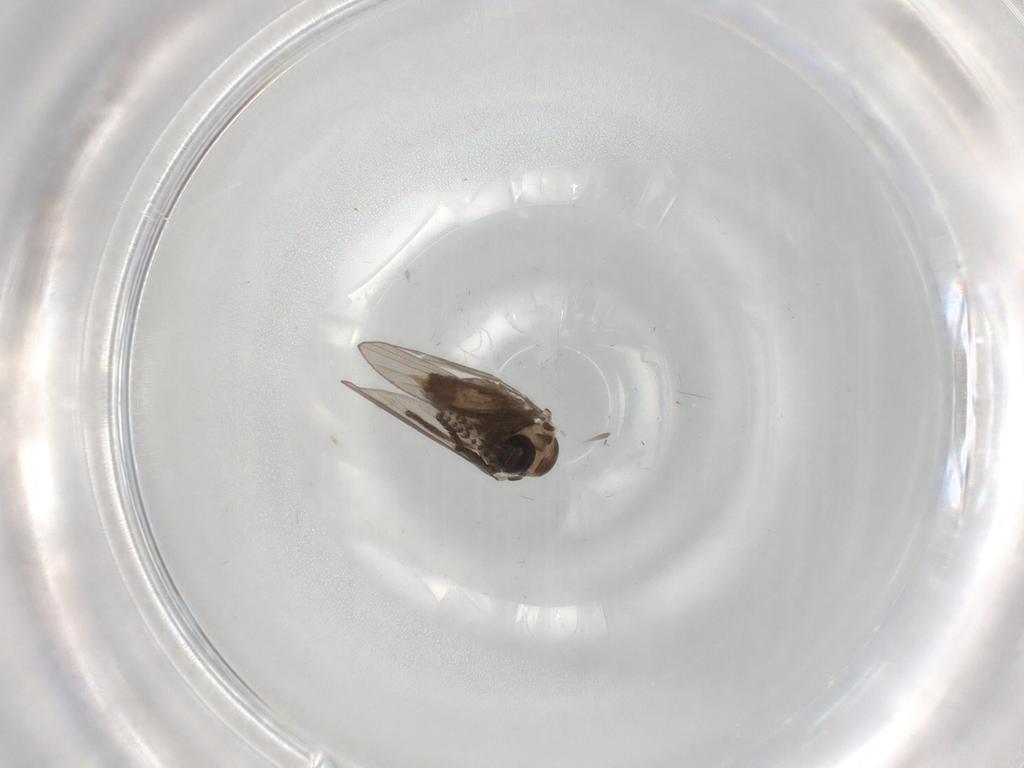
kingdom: Animalia
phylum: Arthropoda
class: Insecta
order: Diptera
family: Psychodidae
